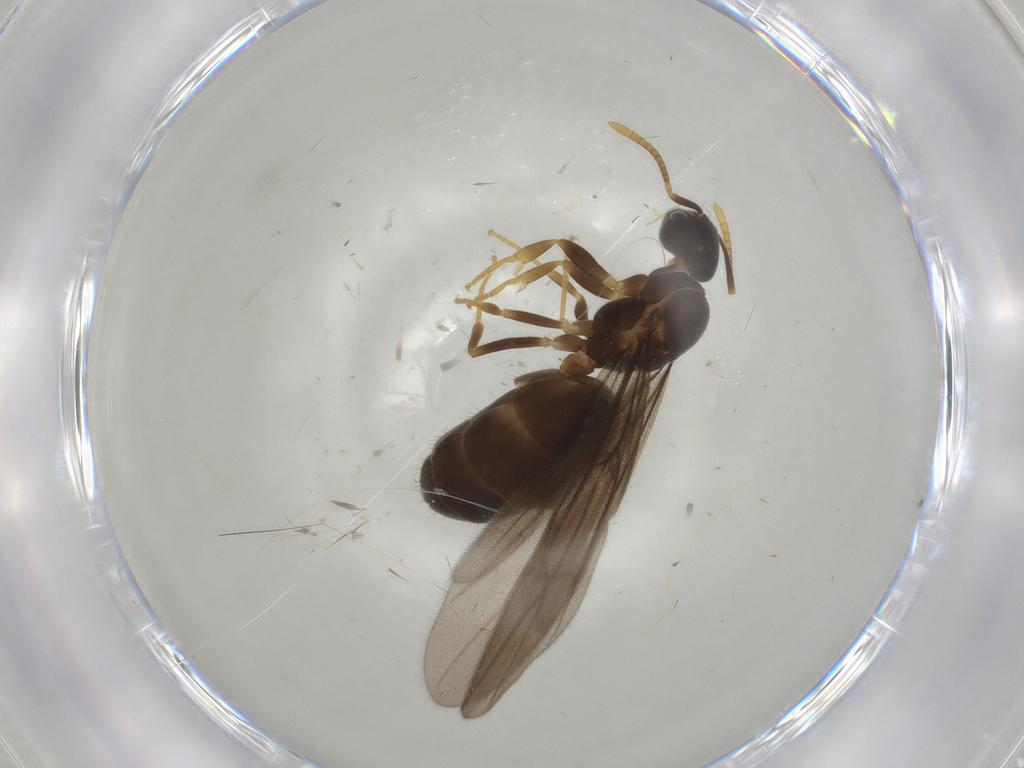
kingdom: Animalia
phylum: Arthropoda
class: Insecta
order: Hymenoptera
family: Formicidae
